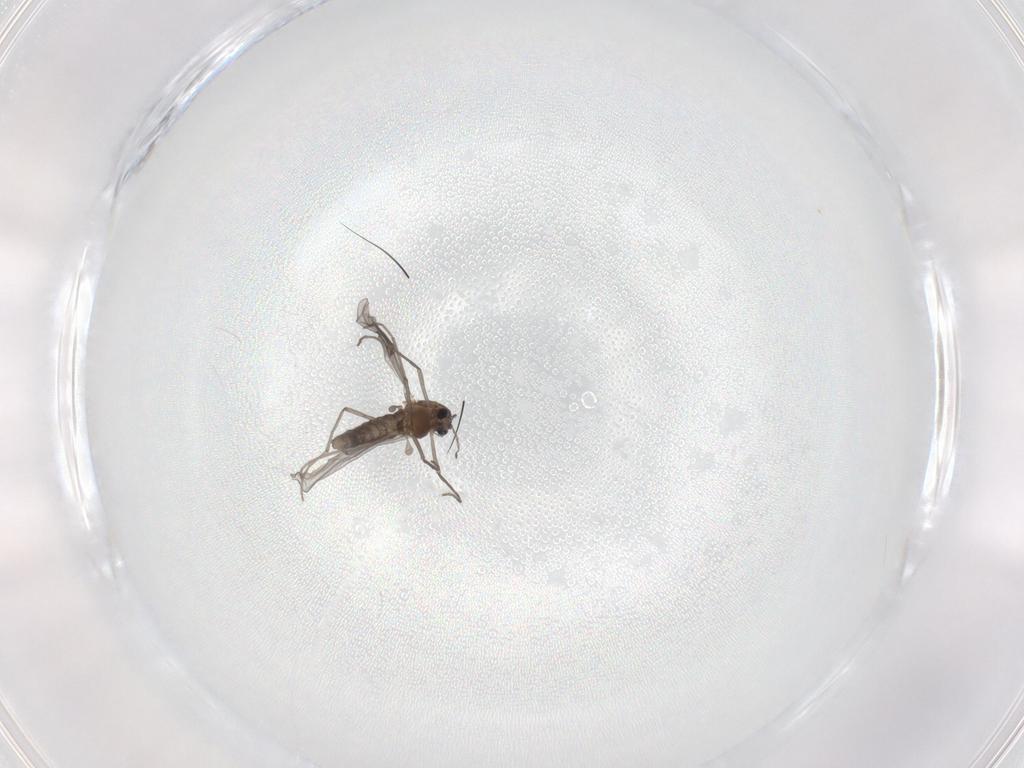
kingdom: Animalia
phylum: Arthropoda
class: Insecta
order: Diptera
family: Chironomidae
